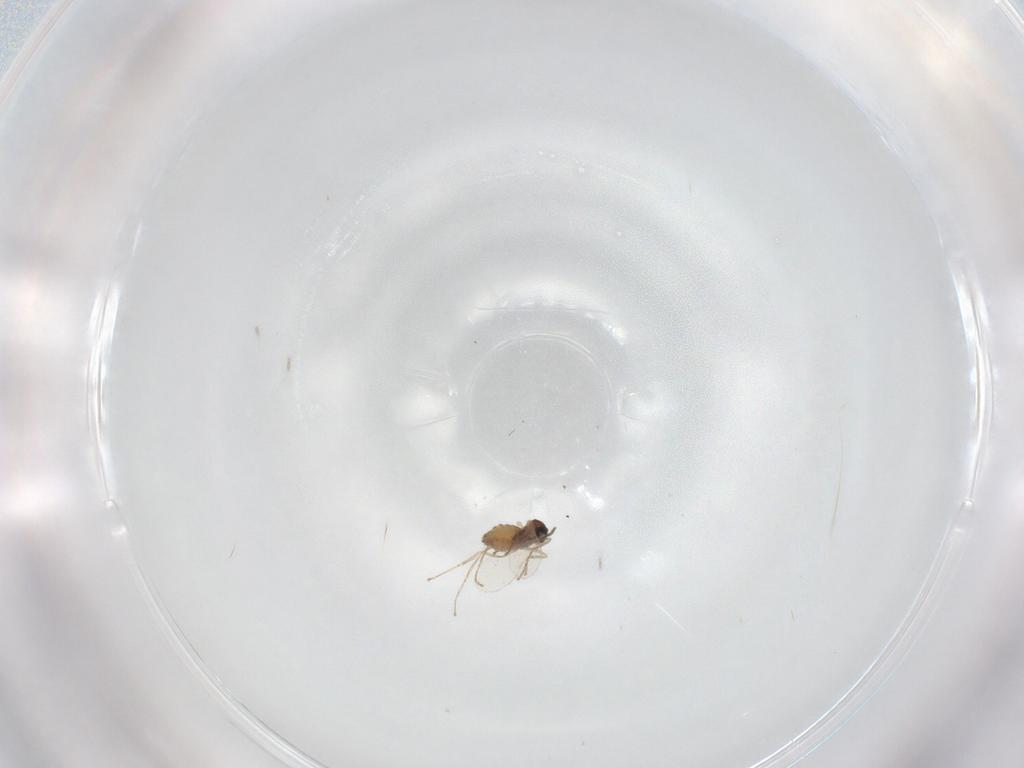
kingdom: Animalia
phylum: Arthropoda
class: Insecta
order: Diptera
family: Cecidomyiidae
